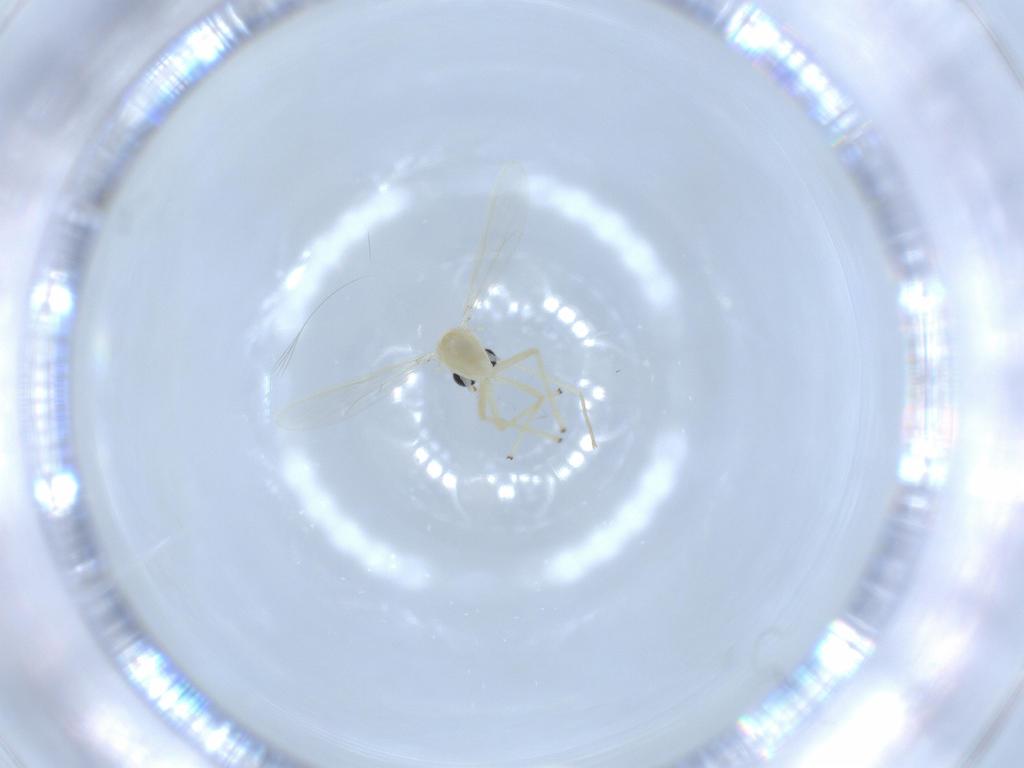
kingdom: Animalia
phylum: Arthropoda
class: Insecta
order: Diptera
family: Chironomidae
